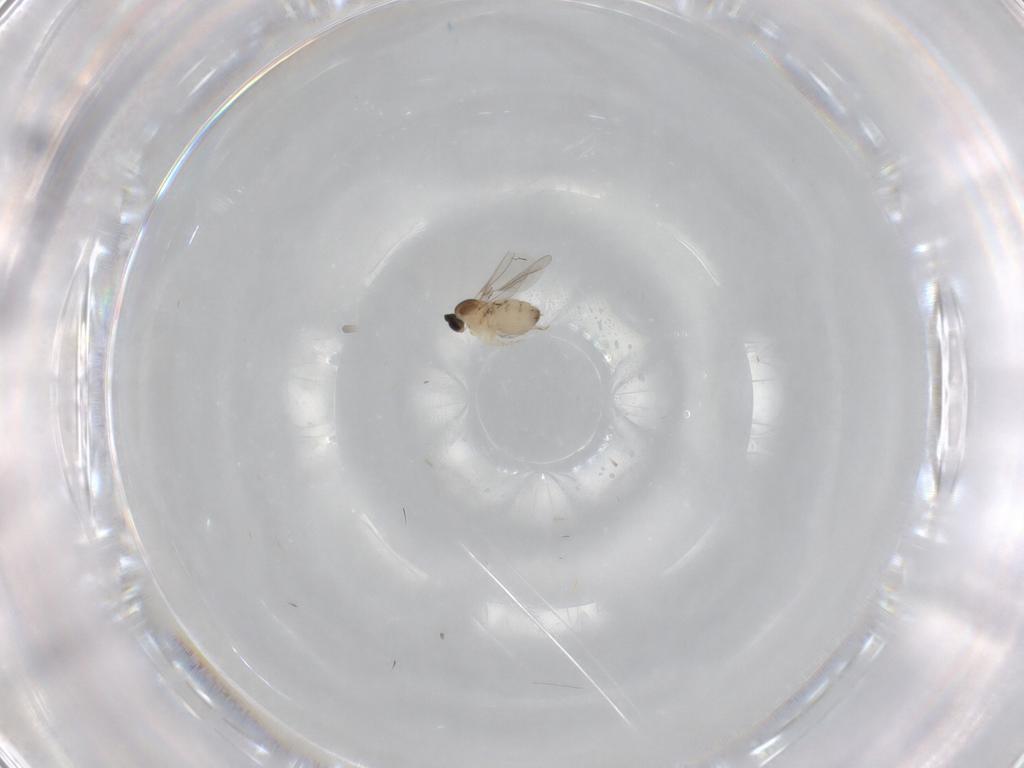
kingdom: Animalia
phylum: Arthropoda
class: Insecta
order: Diptera
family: Cecidomyiidae
